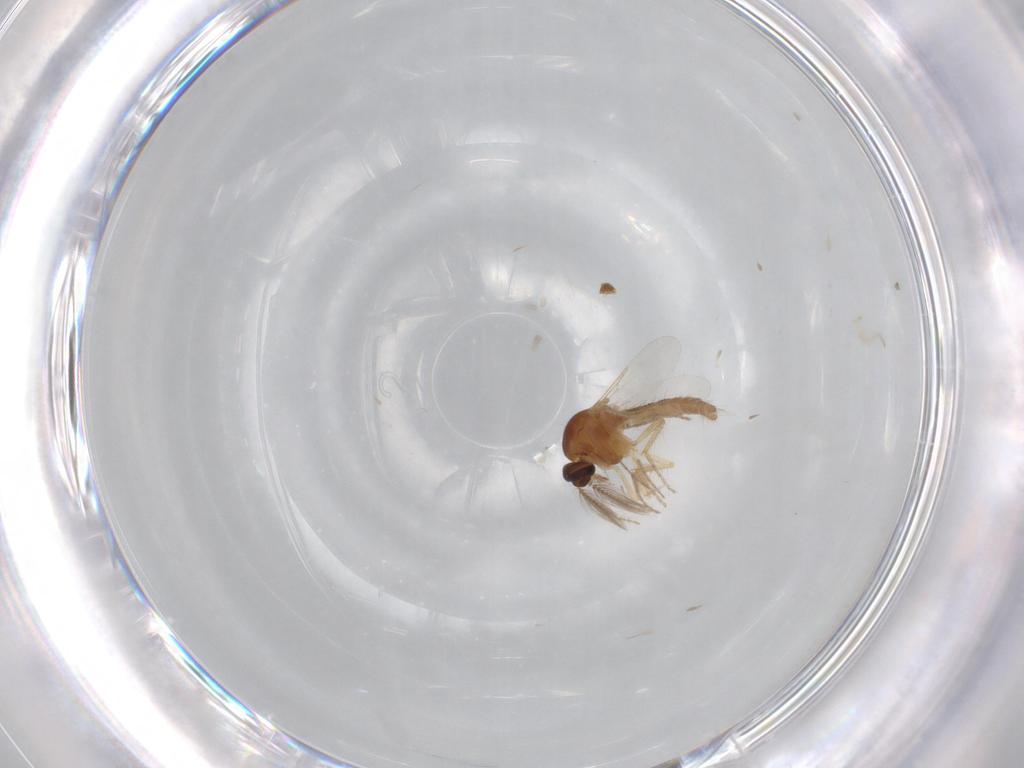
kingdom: Animalia
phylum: Arthropoda
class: Insecta
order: Diptera
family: Ceratopogonidae
